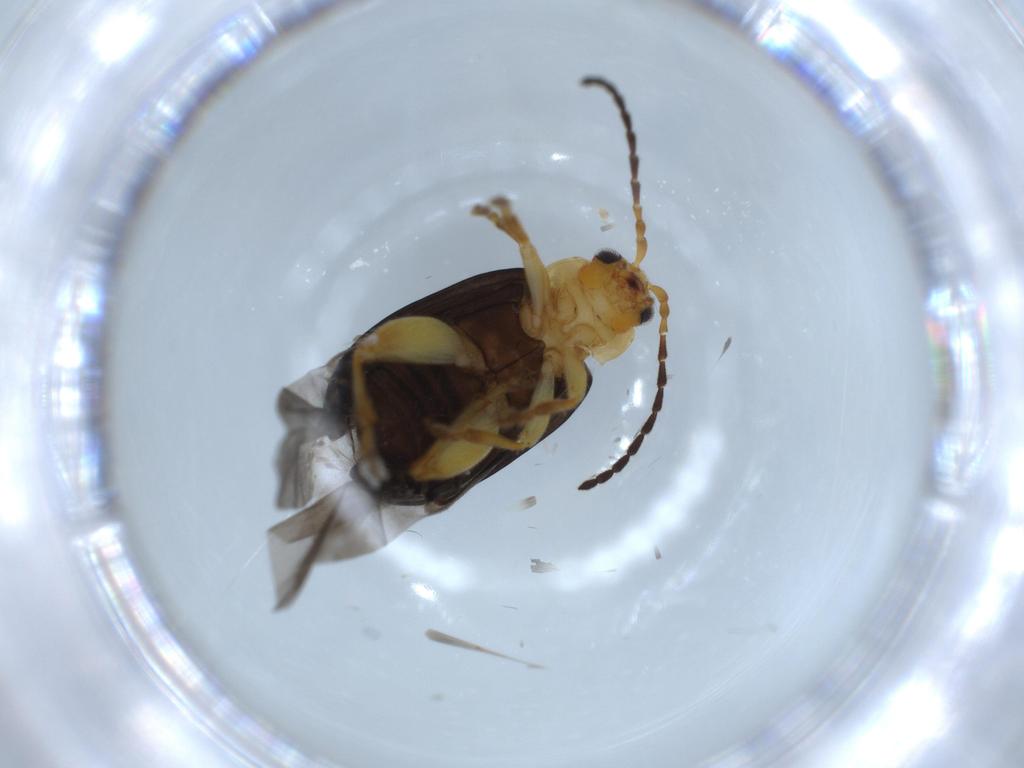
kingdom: Animalia
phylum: Arthropoda
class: Insecta
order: Coleoptera
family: Chrysomelidae
